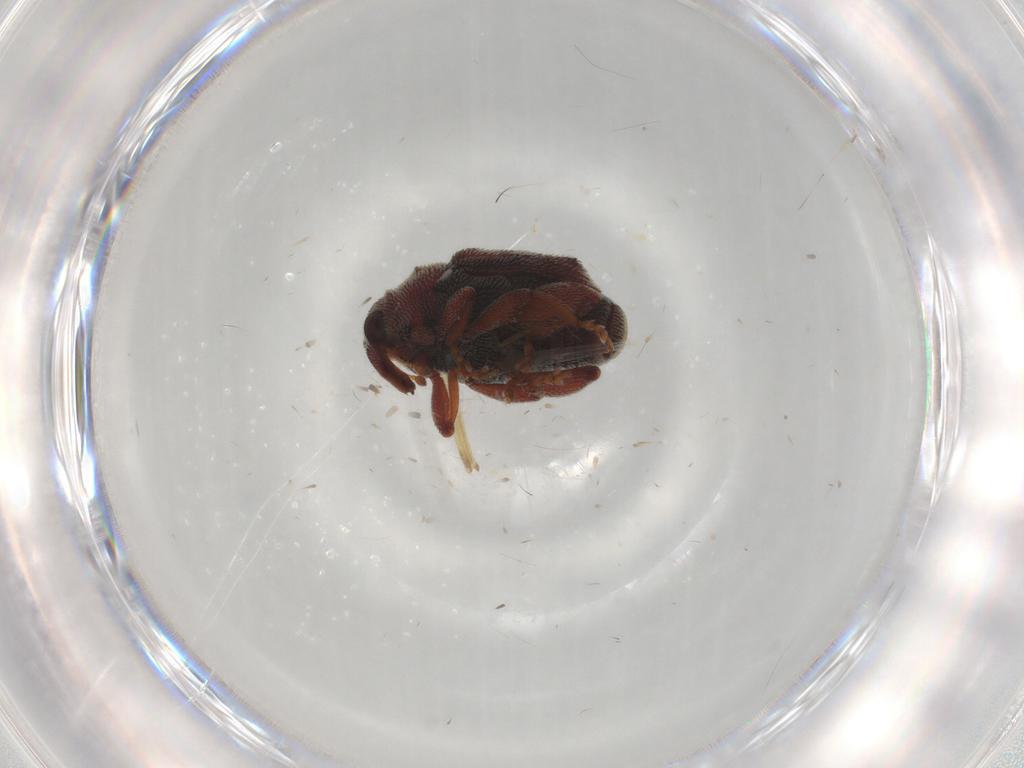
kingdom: Animalia
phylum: Arthropoda
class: Insecta
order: Coleoptera
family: Curculionidae
